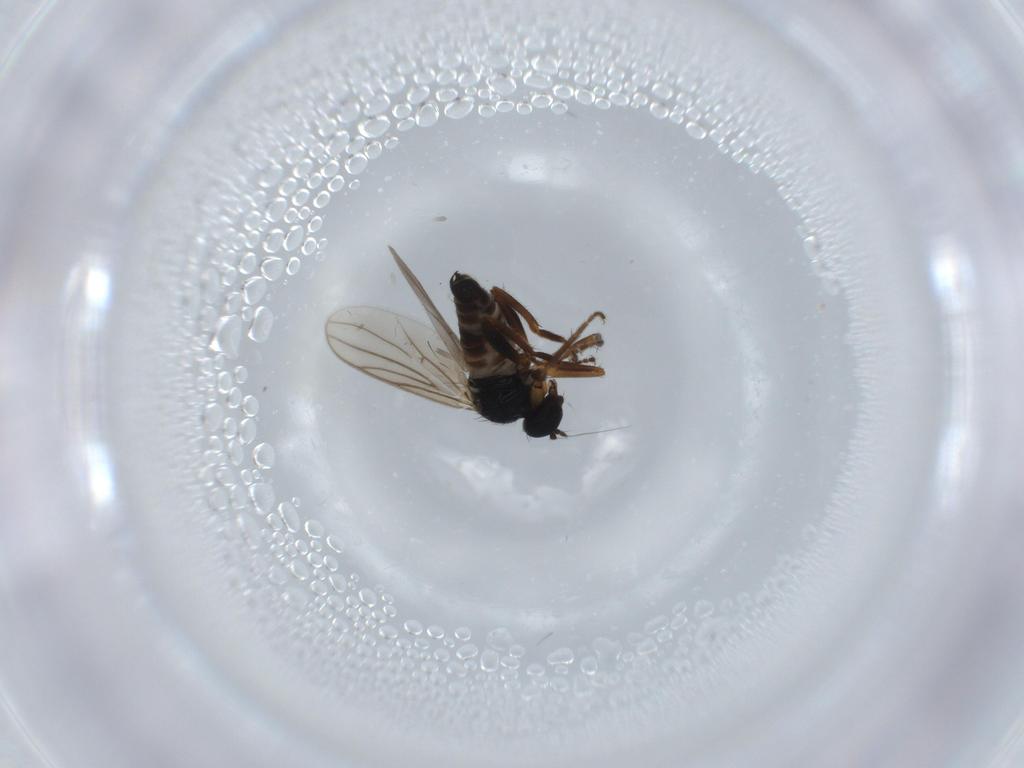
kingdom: Animalia
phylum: Arthropoda
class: Insecta
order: Diptera
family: Hybotidae
